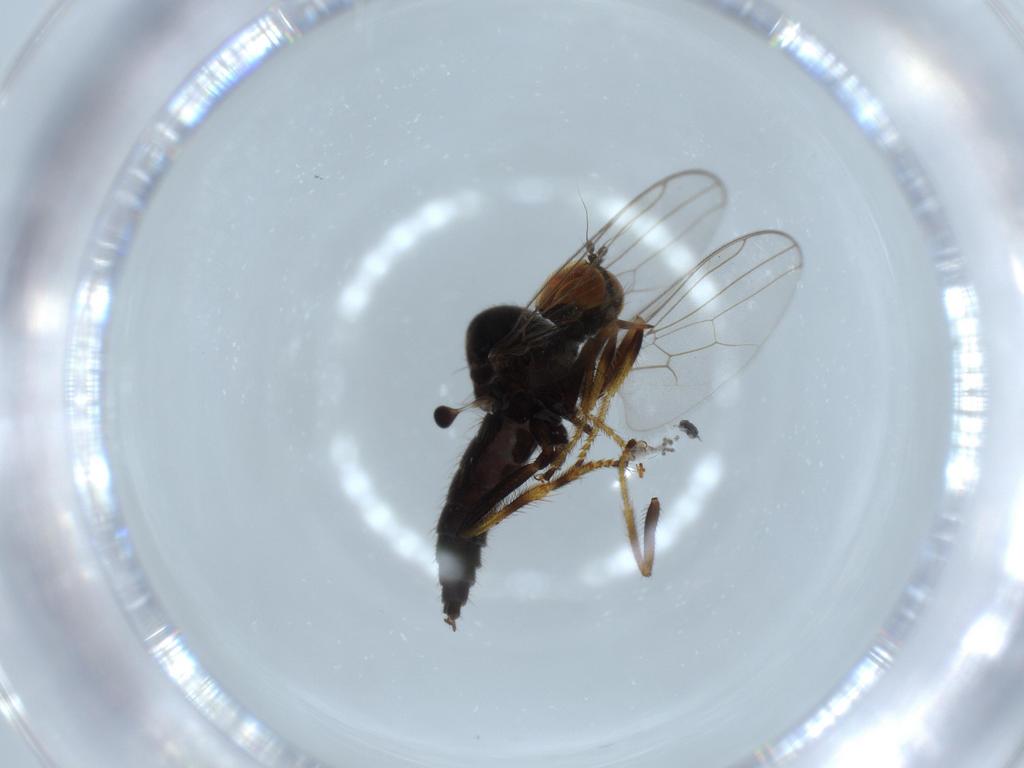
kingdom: Animalia
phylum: Arthropoda
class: Insecta
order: Diptera
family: Hybotidae
